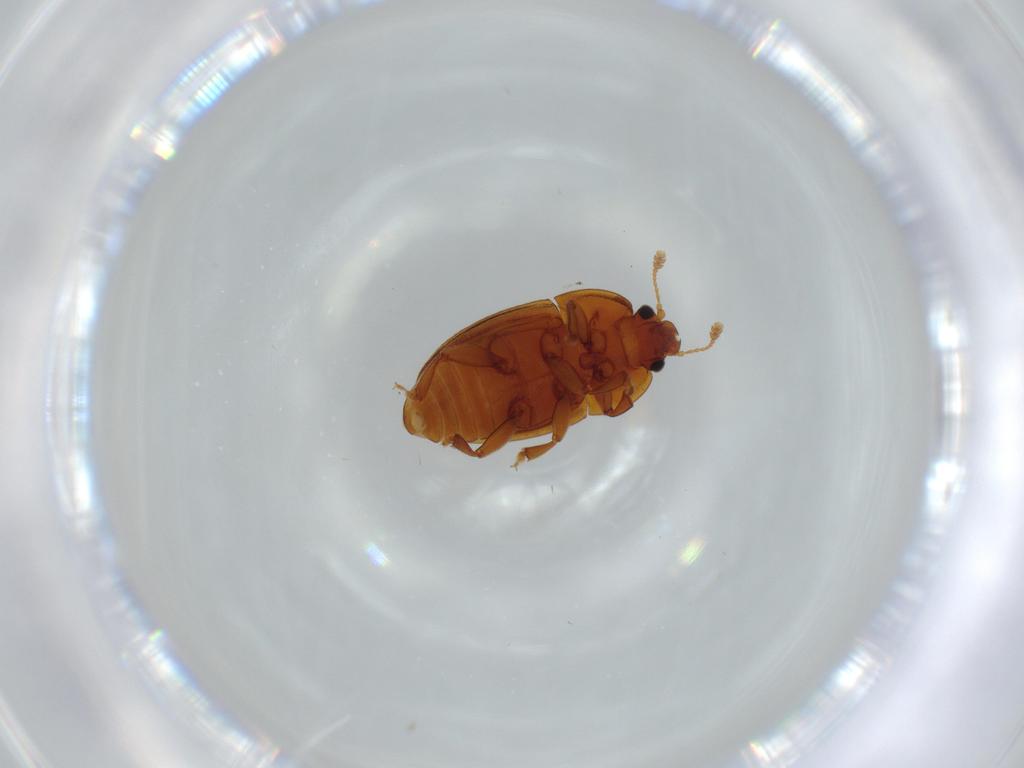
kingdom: Animalia
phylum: Arthropoda
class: Insecta
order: Coleoptera
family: Nitidulidae
